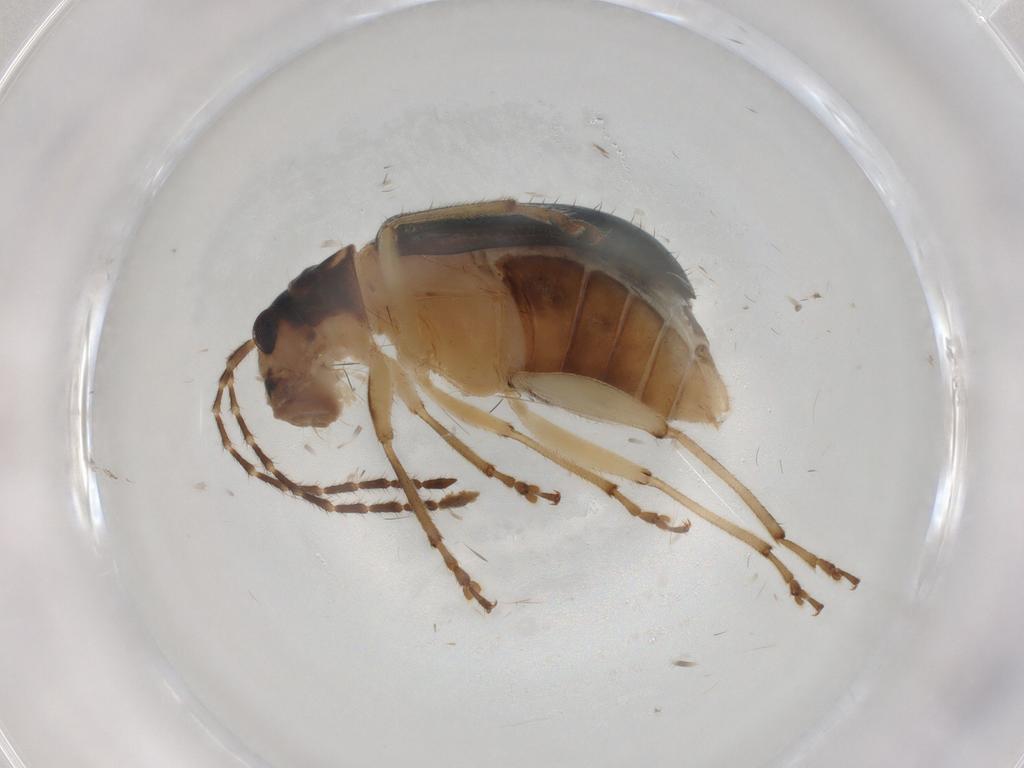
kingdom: Animalia
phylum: Arthropoda
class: Insecta
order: Coleoptera
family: Chrysomelidae
